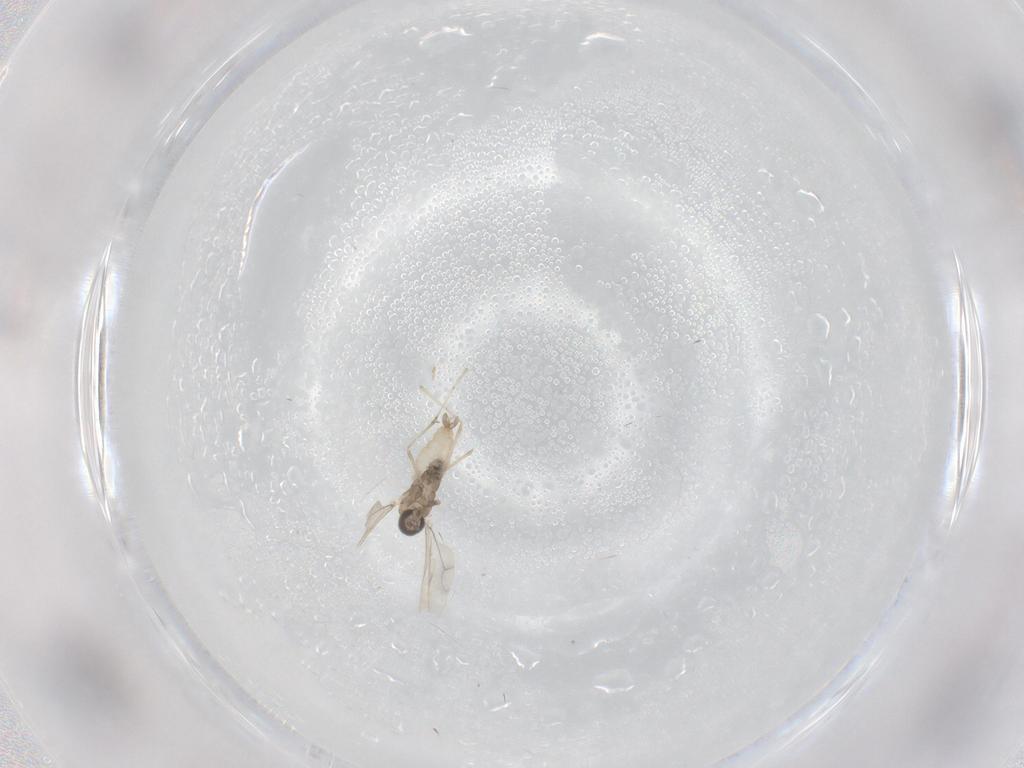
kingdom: Animalia
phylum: Arthropoda
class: Insecta
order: Diptera
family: Cecidomyiidae
